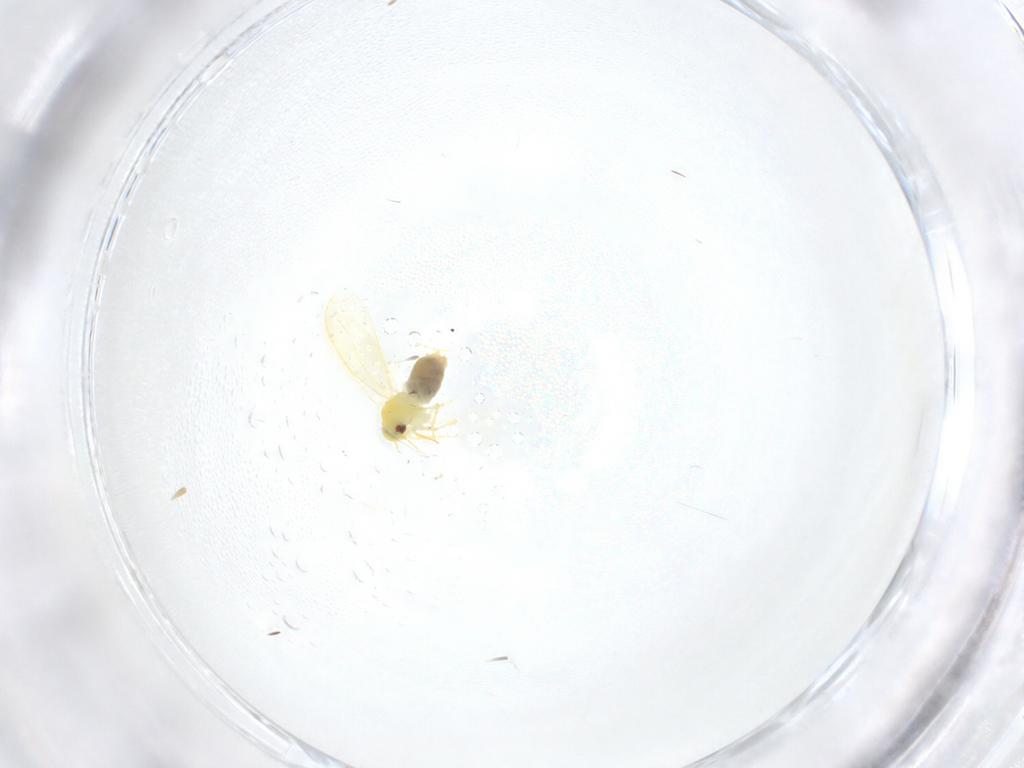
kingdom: Animalia
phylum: Arthropoda
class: Insecta
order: Hemiptera
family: Aleyrodidae
